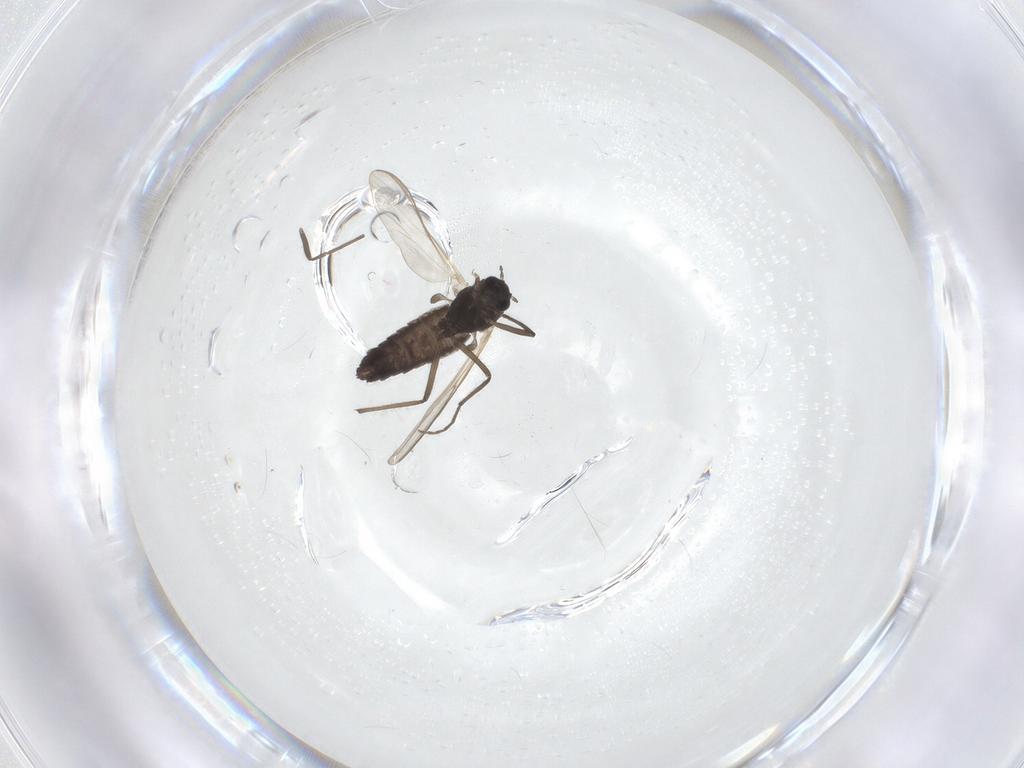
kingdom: Animalia
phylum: Arthropoda
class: Insecta
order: Diptera
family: Chironomidae
